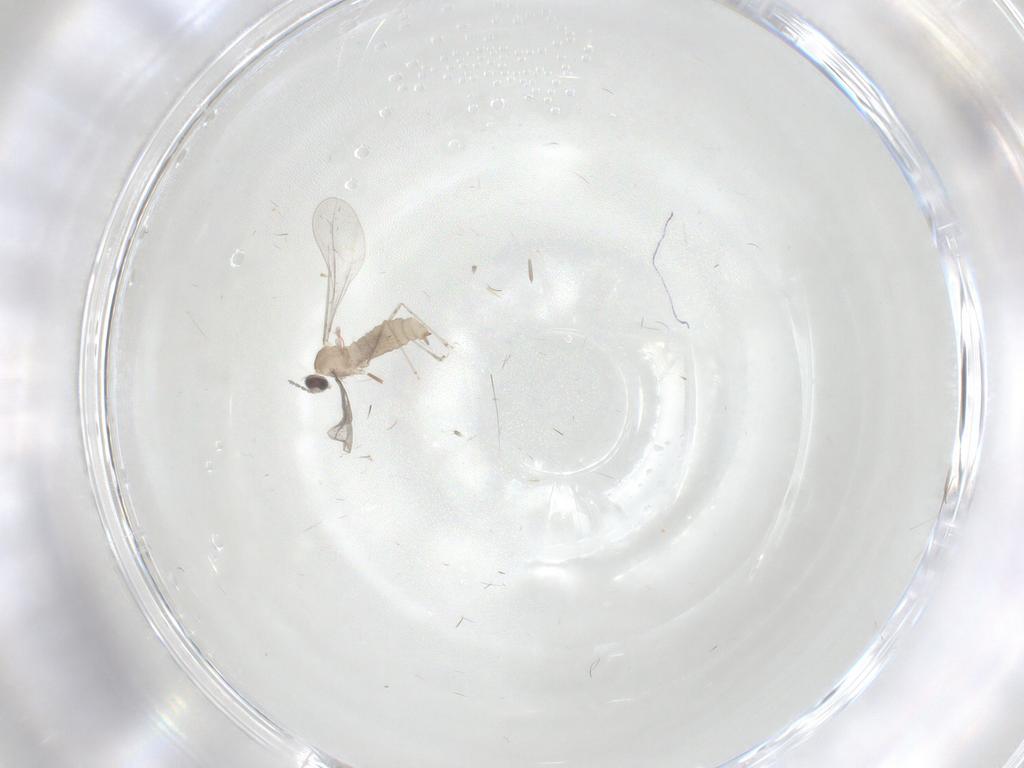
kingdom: Animalia
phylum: Arthropoda
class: Insecta
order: Diptera
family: Cecidomyiidae
